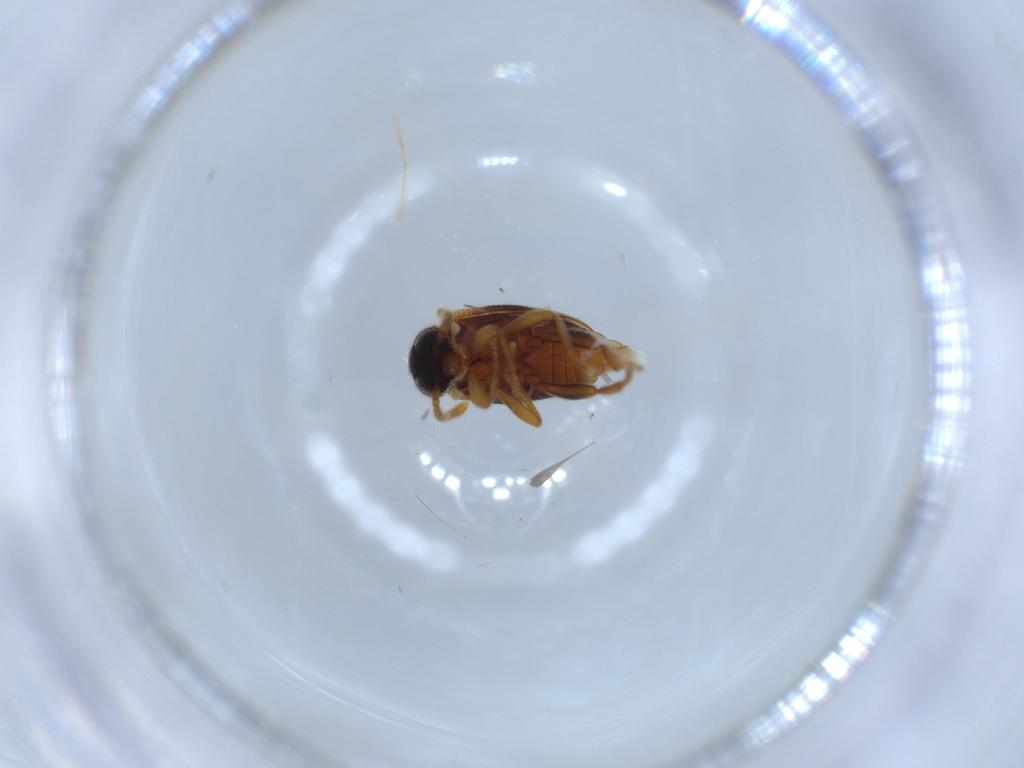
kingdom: Animalia
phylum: Arthropoda
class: Insecta
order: Coleoptera
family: Aderidae
